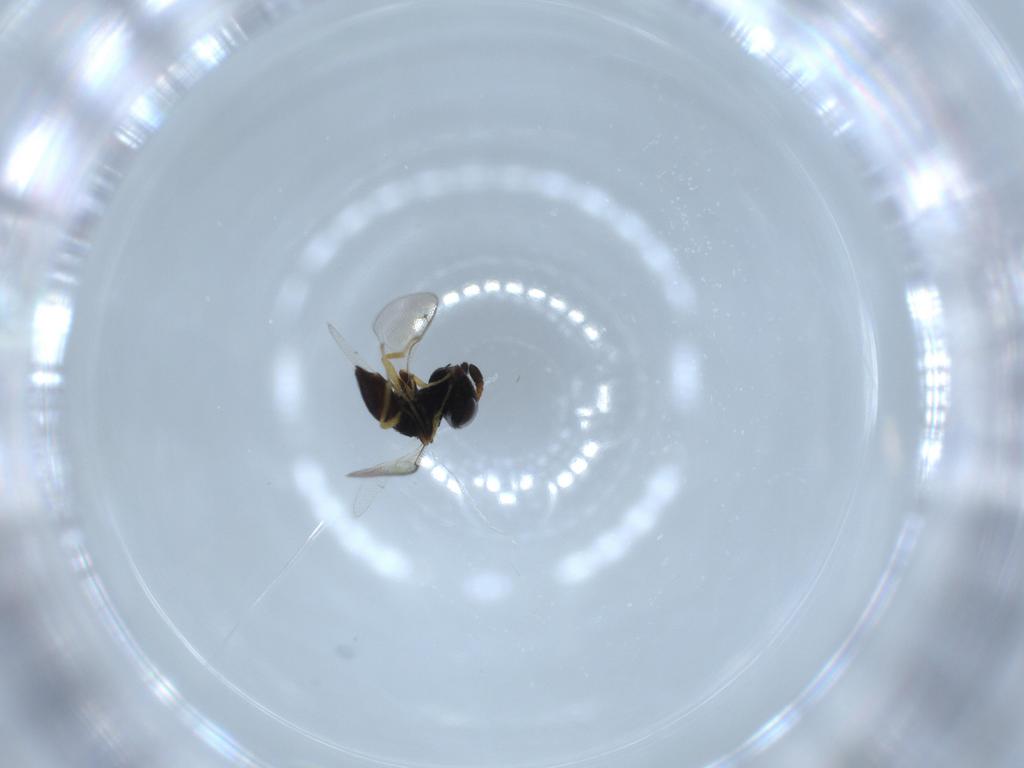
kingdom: Animalia
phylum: Arthropoda
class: Insecta
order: Hymenoptera
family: Pteromalidae
